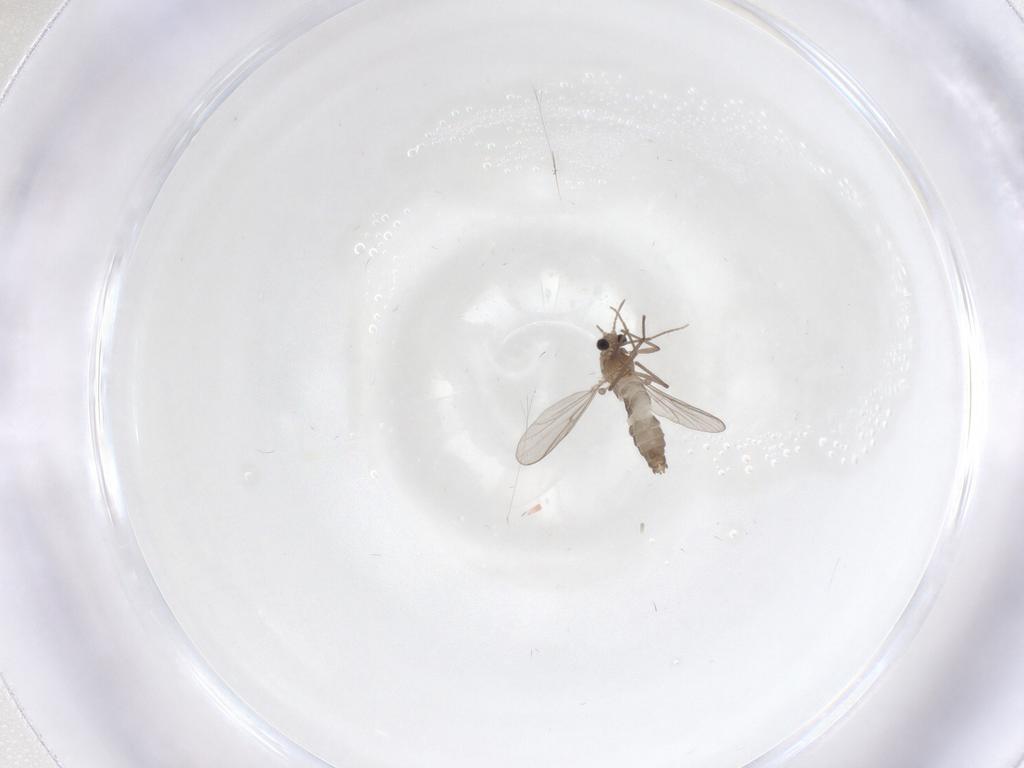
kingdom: Animalia
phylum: Arthropoda
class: Insecta
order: Diptera
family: Chironomidae
